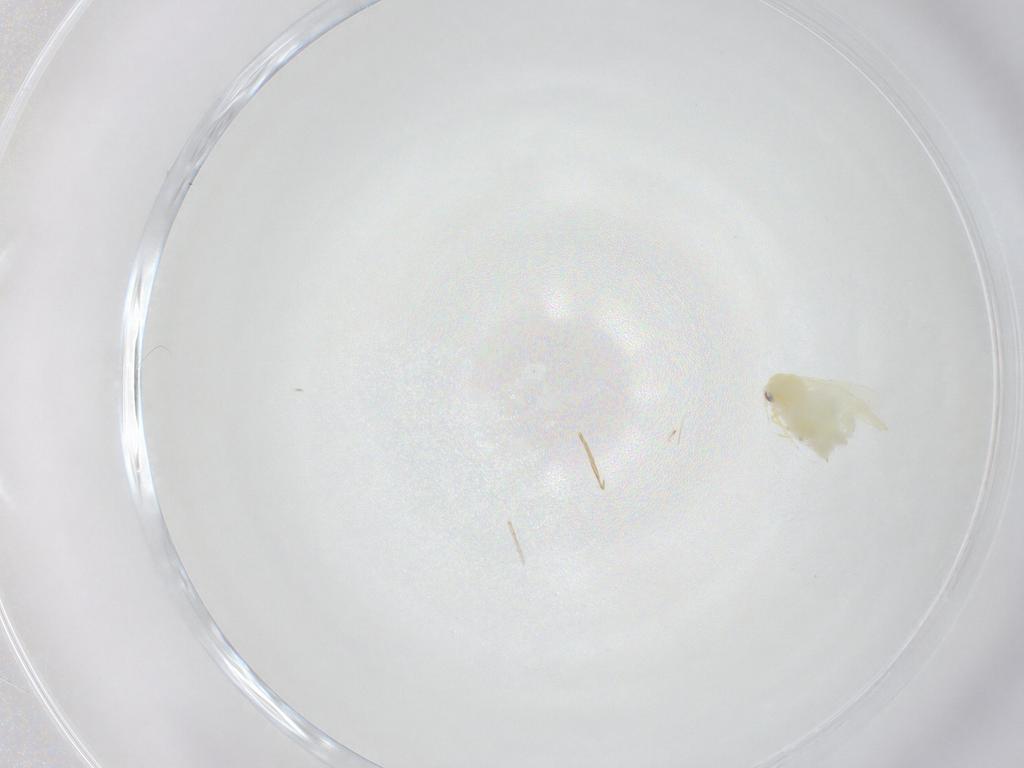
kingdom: Animalia
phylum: Arthropoda
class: Insecta
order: Hemiptera
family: Aleyrodidae
